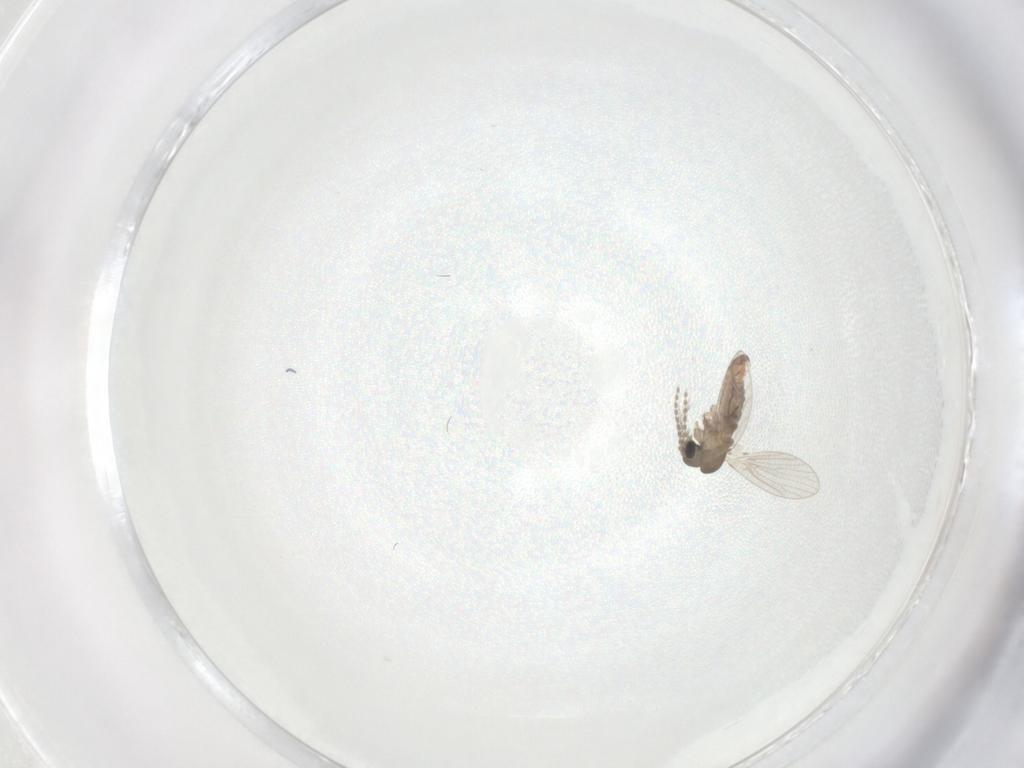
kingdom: Animalia
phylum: Arthropoda
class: Insecta
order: Diptera
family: Psychodidae
